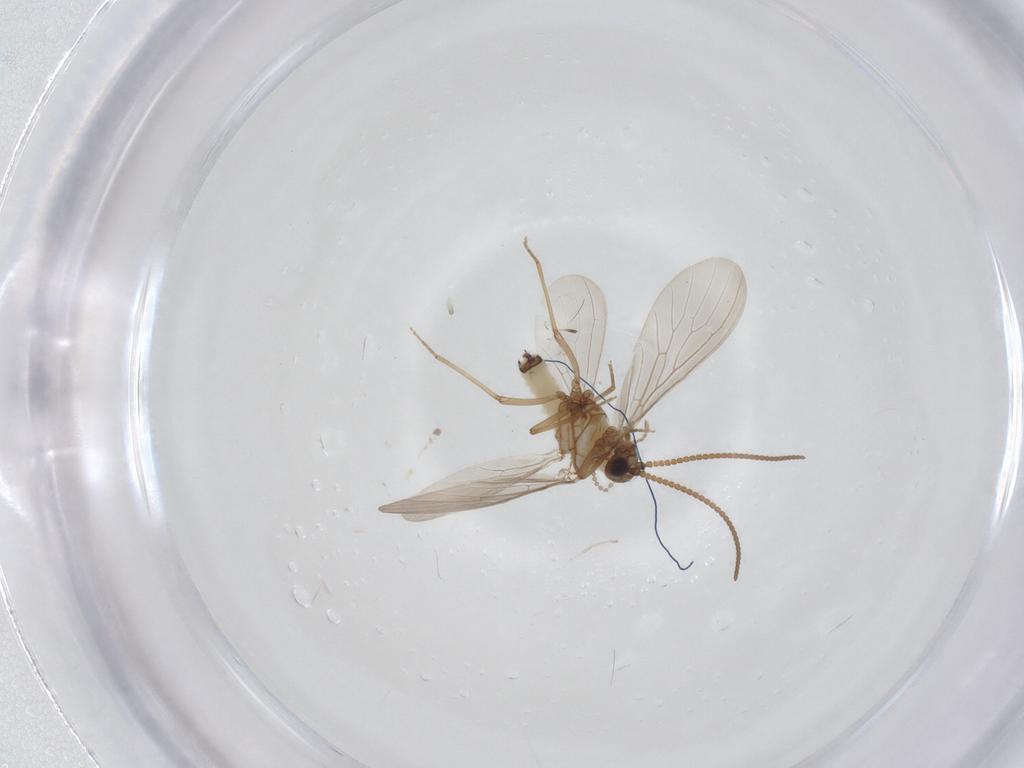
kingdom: Animalia
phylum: Arthropoda
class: Insecta
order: Neuroptera
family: Coniopterygidae
